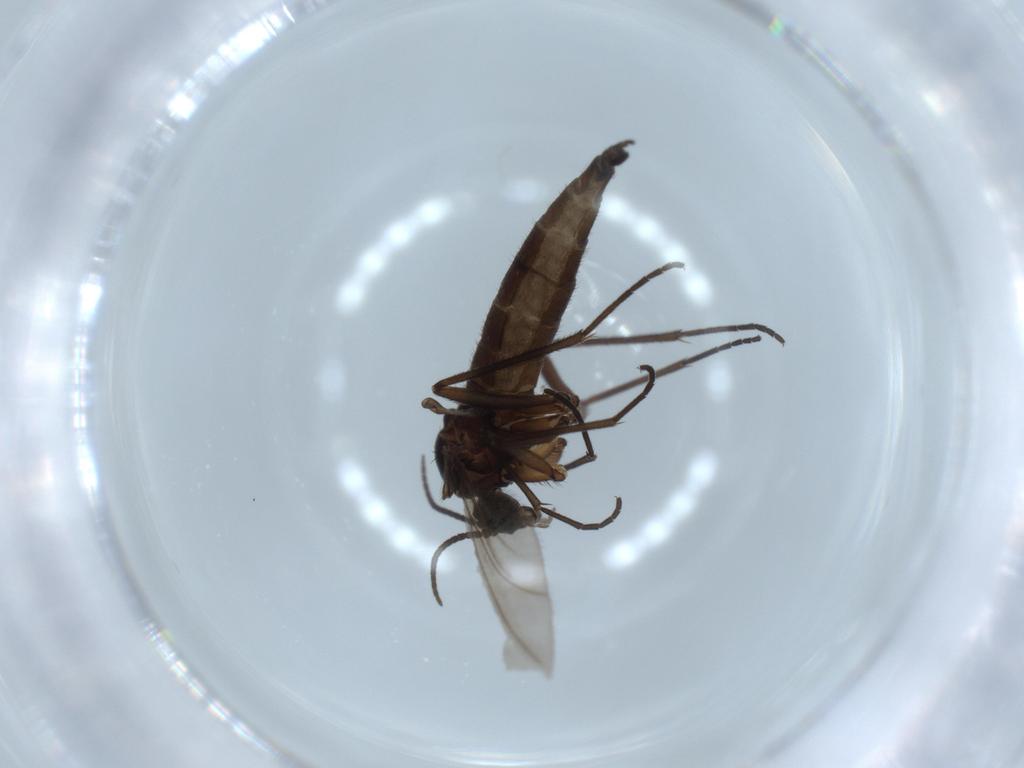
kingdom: Animalia
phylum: Arthropoda
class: Insecta
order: Diptera
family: Sciaridae
